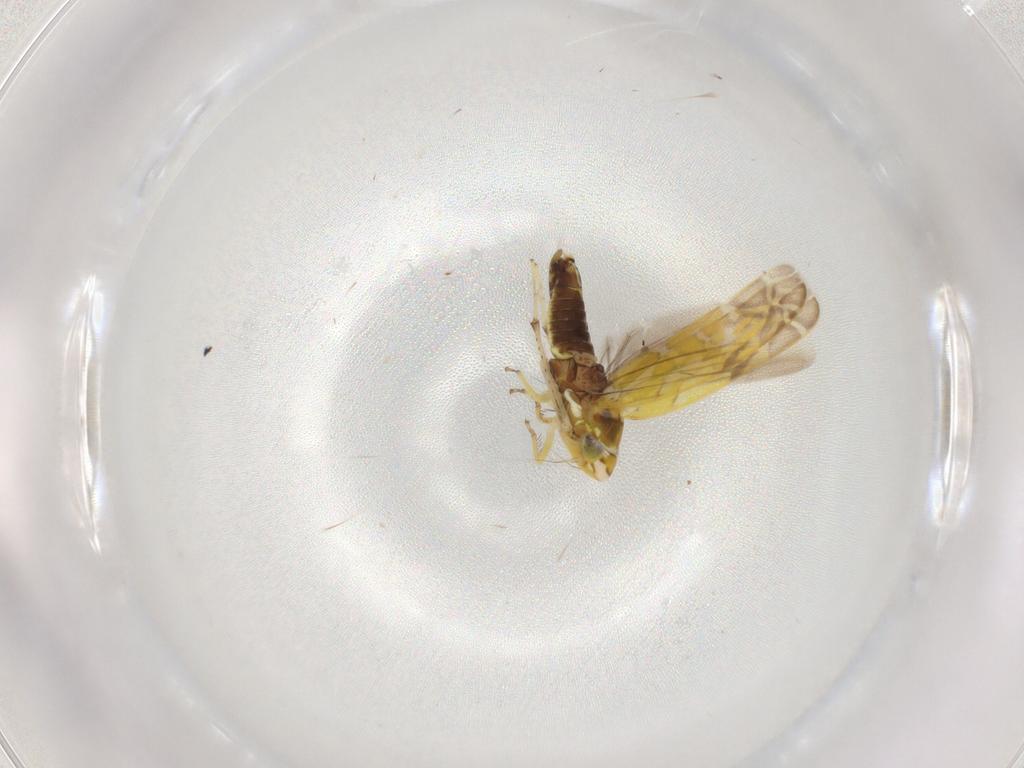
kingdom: Animalia
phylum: Arthropoda
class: Insecta
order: Hemiptera
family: Cicadellidae
